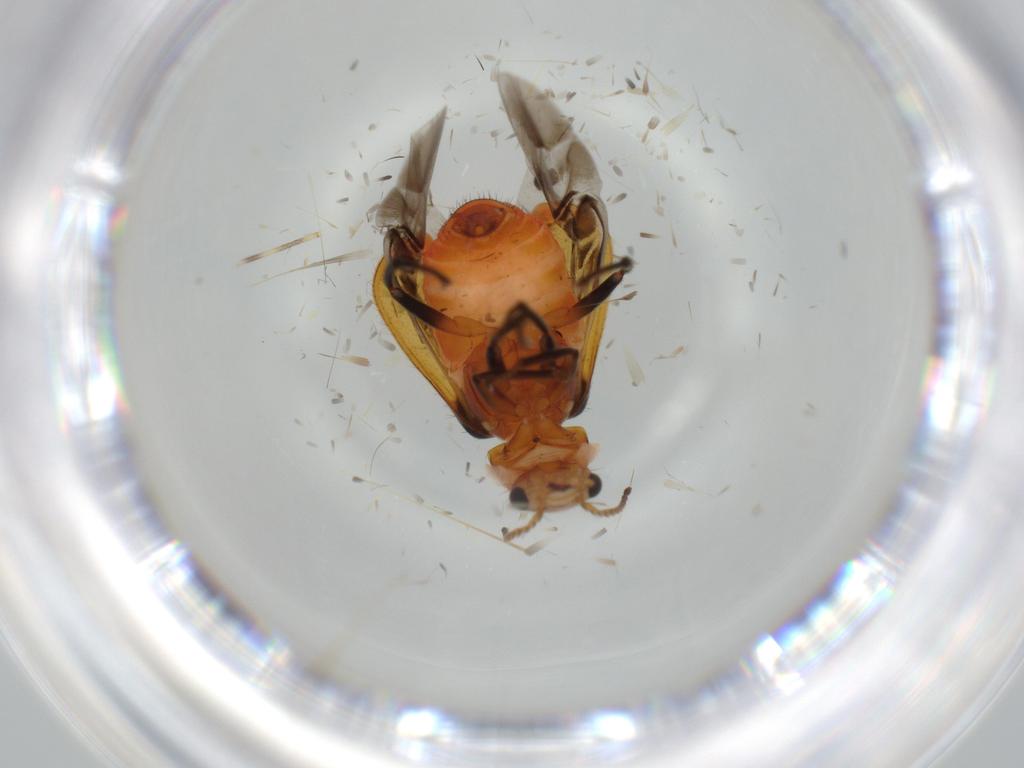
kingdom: Animalia
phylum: Arthropoda
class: Insecta
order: Coleoptera
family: Melyridae
